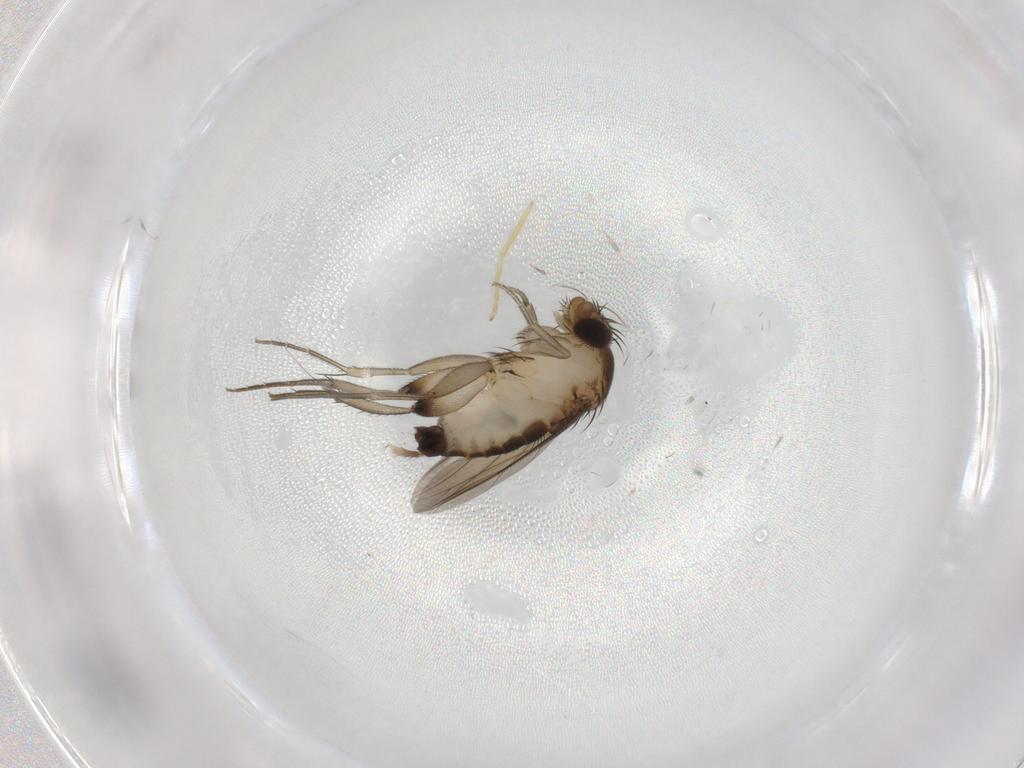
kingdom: Animalia
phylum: Arthropoda
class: Insecta
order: Diptera
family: Phoridae
